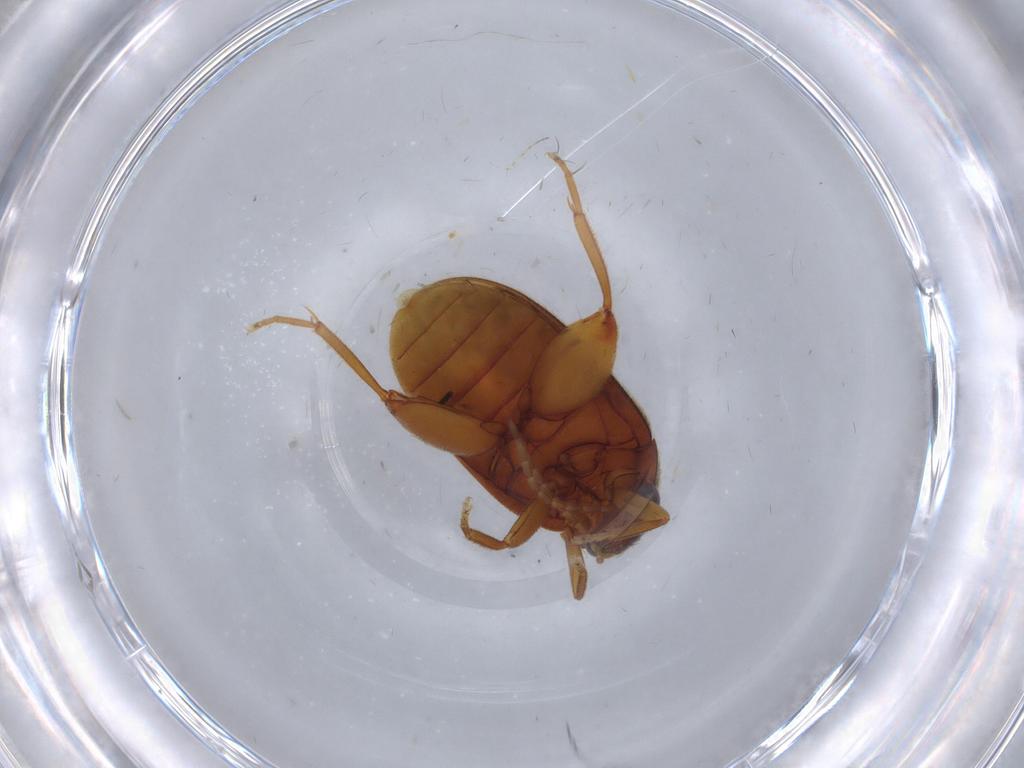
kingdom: Animalia
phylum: Arthropoda
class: Insecta
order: Coleoptera
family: Scirtidae
